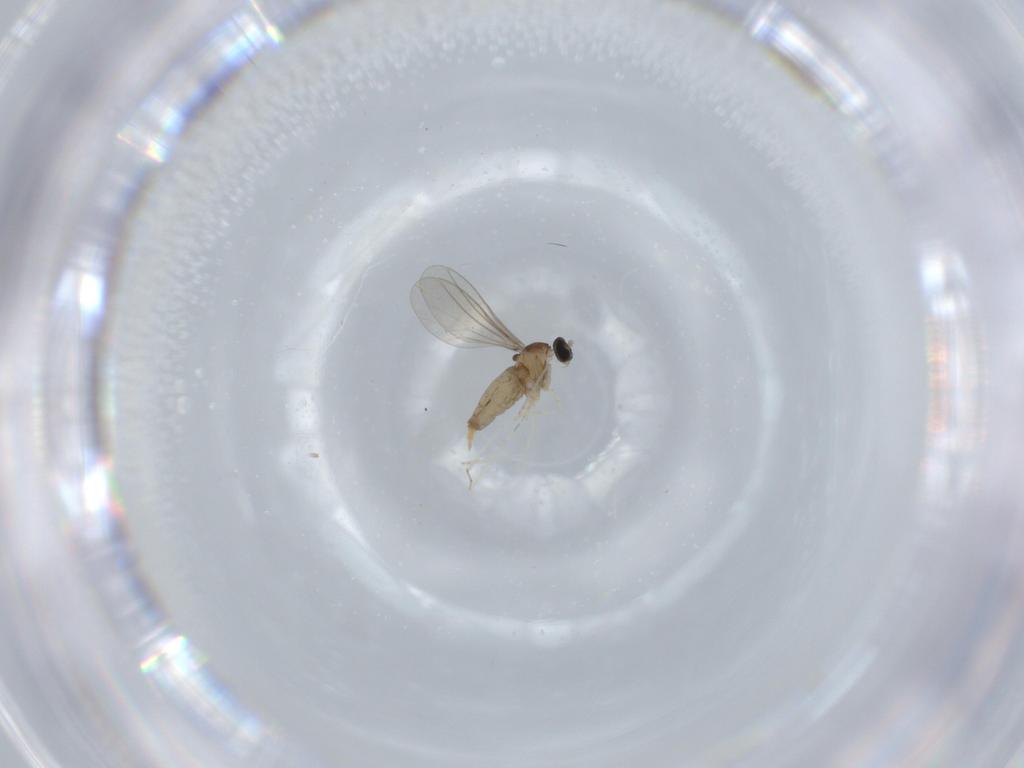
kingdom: Animalia
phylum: Arthropoda
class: Insecta
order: Diptera
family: Cecidomyiidae
